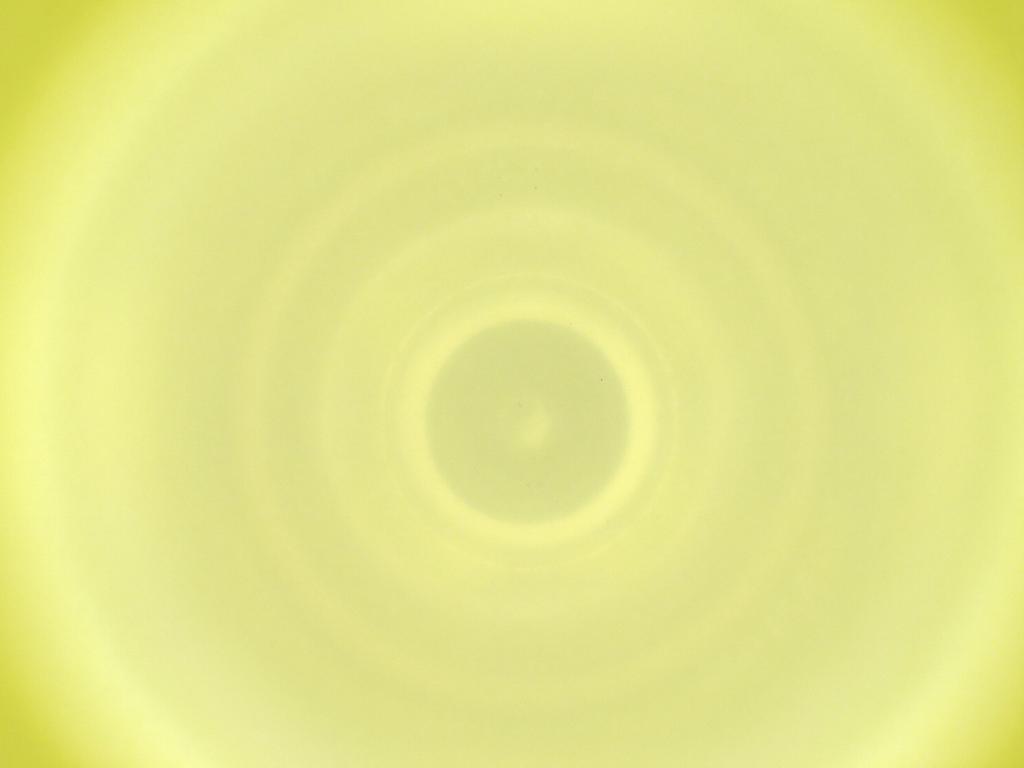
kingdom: Animalia
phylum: Arthropoda
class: Insecta
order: Diptera
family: Cecidomyiidae
